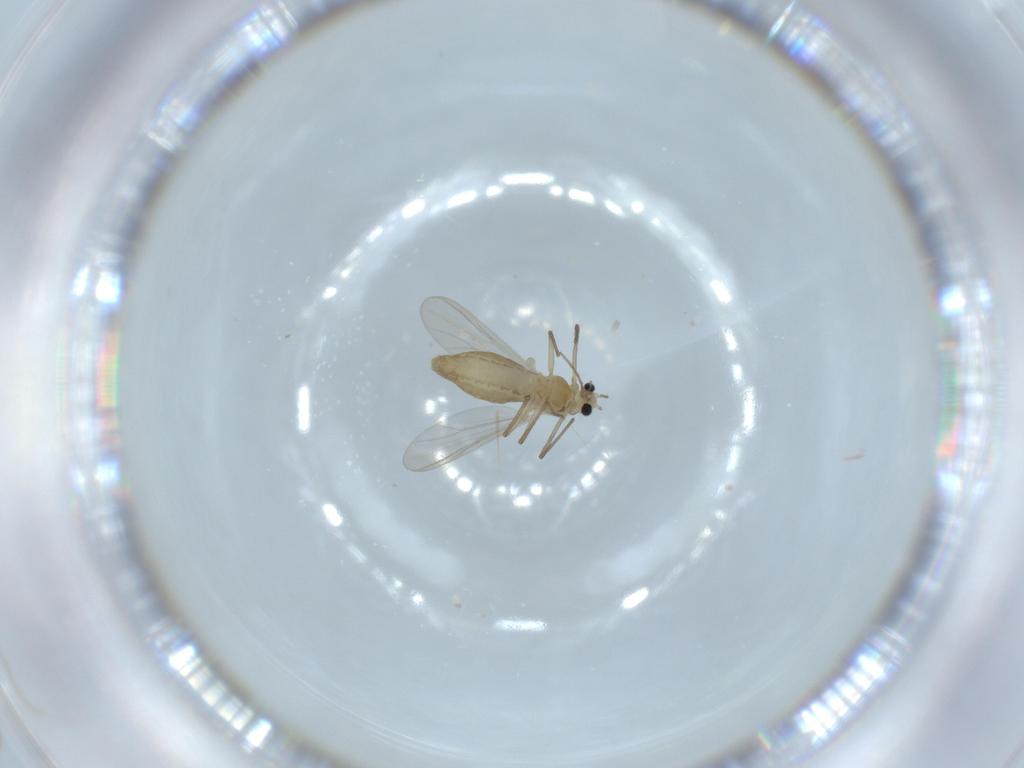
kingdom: Animalia
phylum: Arthropoda
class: Insecta
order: Diptera
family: Chironomidae
